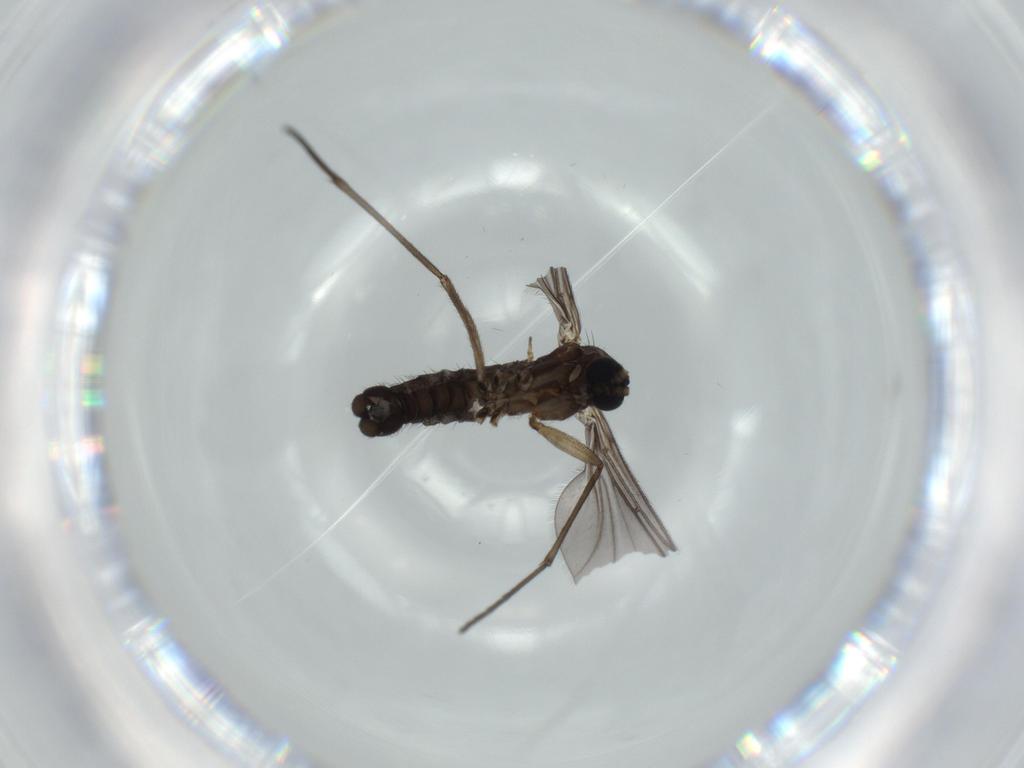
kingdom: Animalia
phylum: Arthropoda
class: Insecta
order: Diptera
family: Sciaridae
